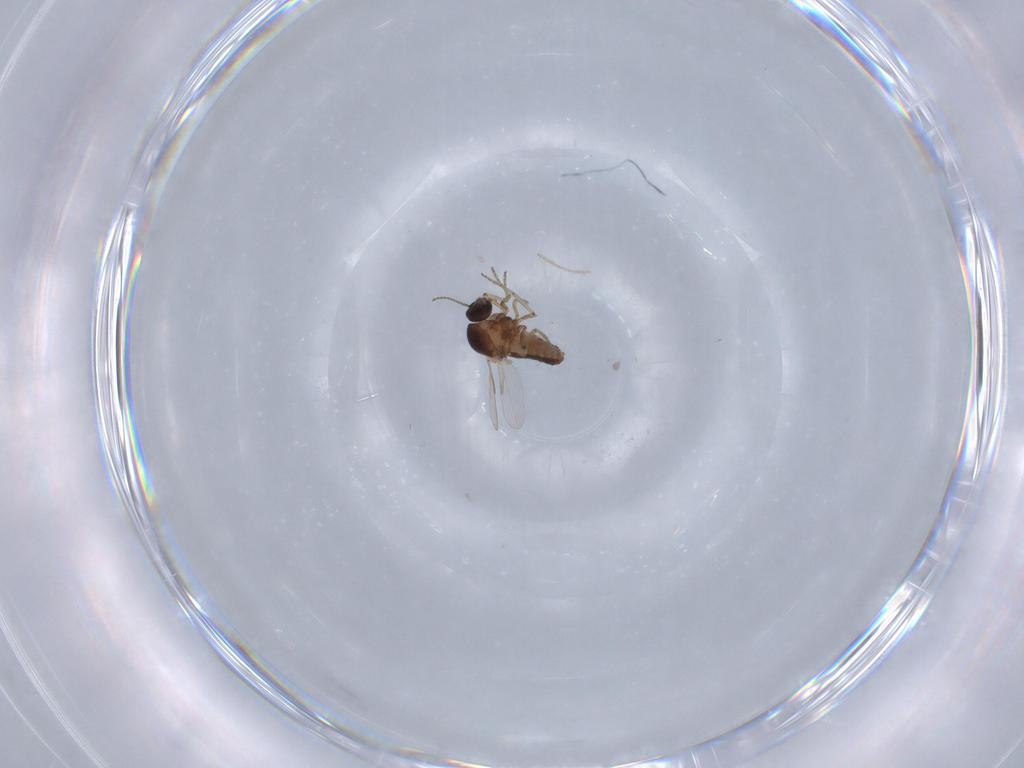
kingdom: Animalia
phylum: Arthropoda
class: Insecta
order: Diptera
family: Ceratopogonidae
